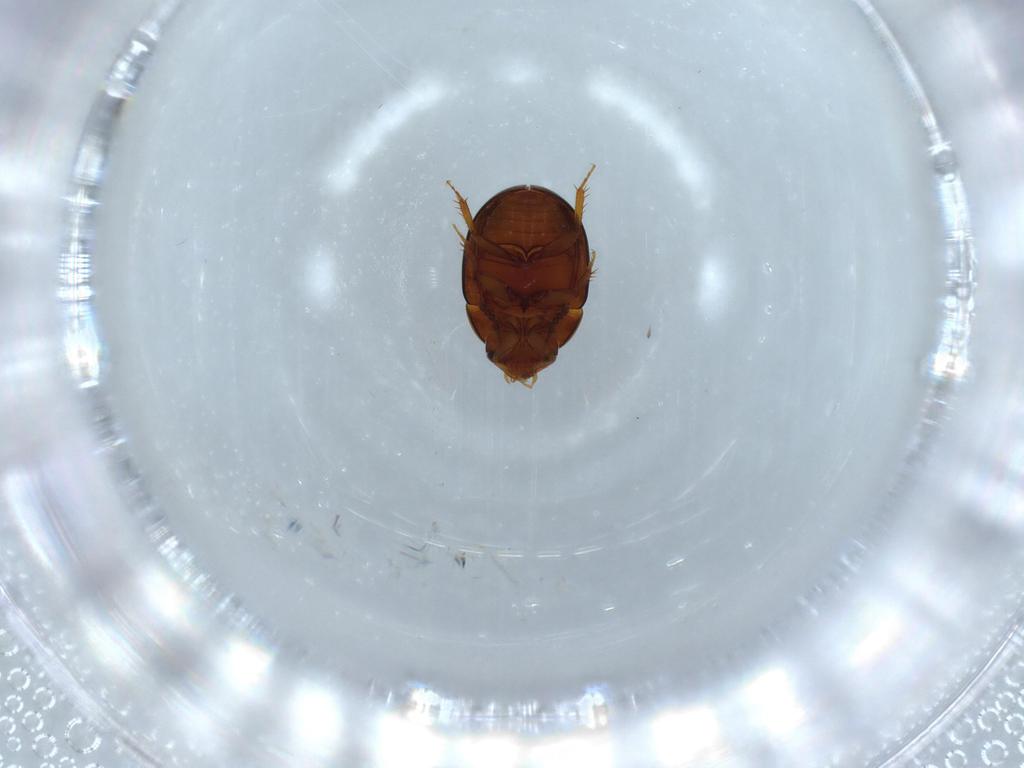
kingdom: Animalia
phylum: Arthropoda
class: Insecta
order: Coleoptera
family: Leiodidae
